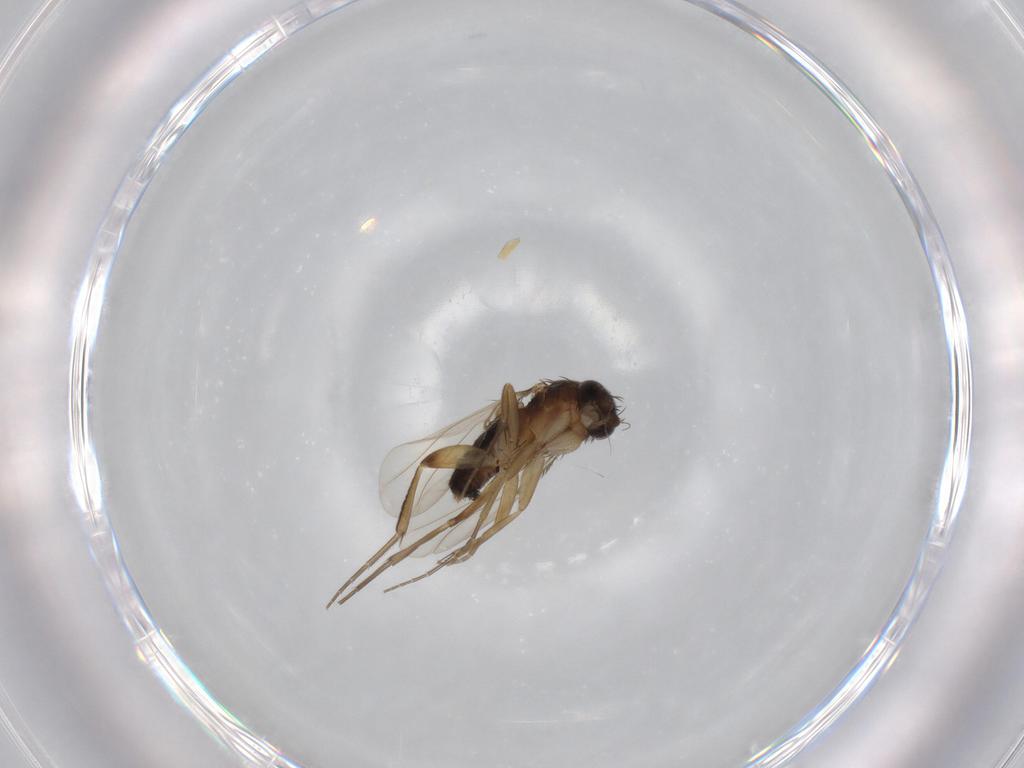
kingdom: Animalia
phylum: Arthropoda
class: Insecta
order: Diptera
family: Phoridae
